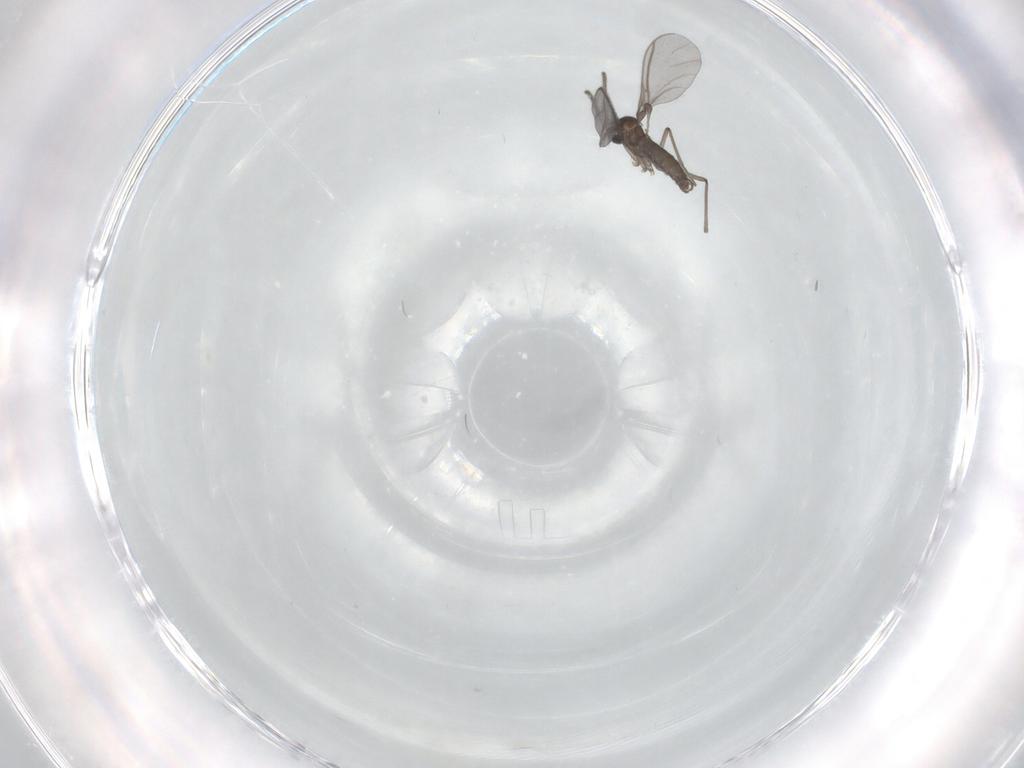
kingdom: Animalia
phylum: Arthropoda
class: Insecta
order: Diptera
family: Sciaridae
